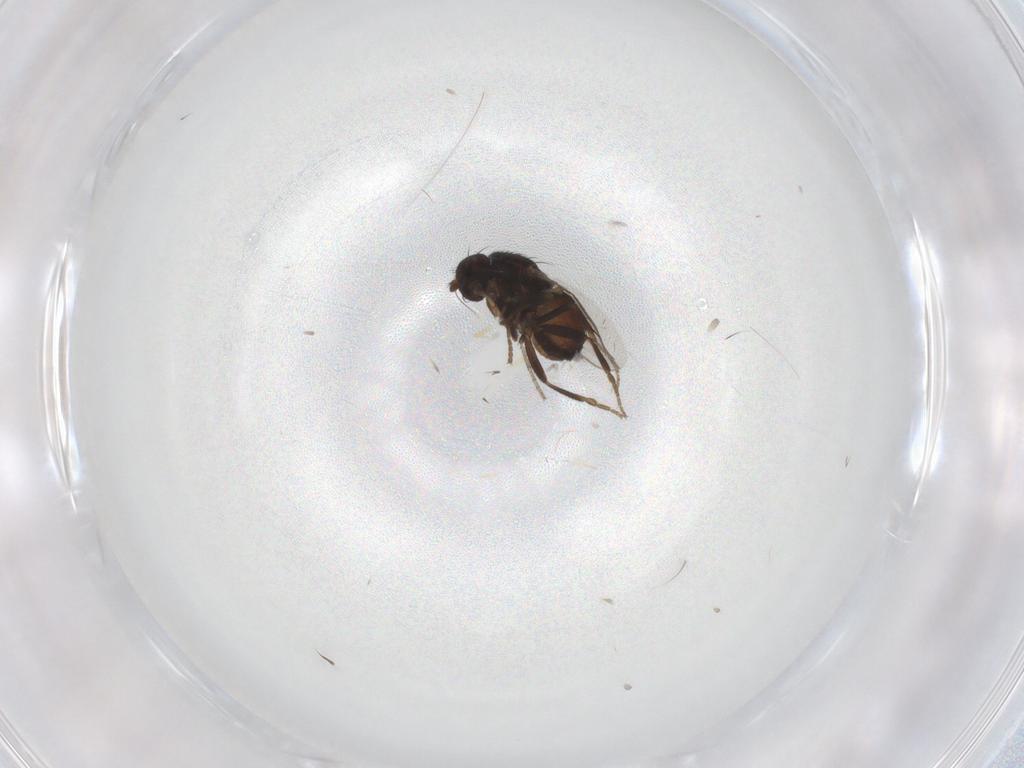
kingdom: Animalia
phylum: Arthropoda
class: Insecta
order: Diptera
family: Sphaeroceridae
